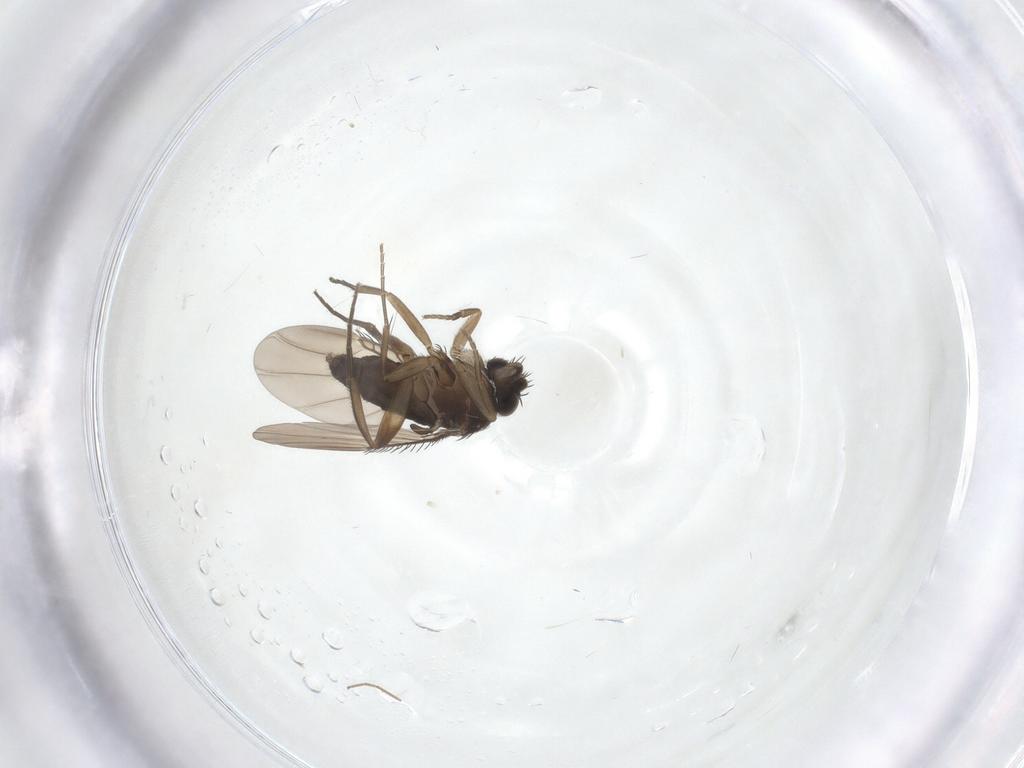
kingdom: Animalia
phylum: Arthropoda
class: Insecta
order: Diptera
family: Phoridae
